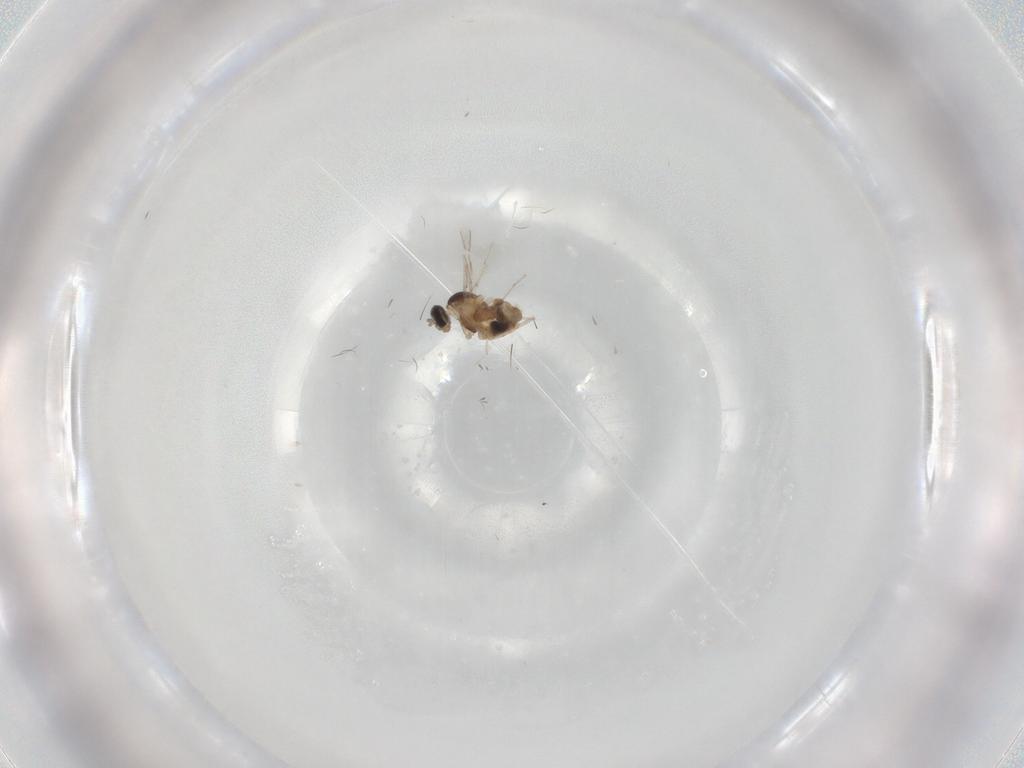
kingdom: Animalia
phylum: Arthropoda
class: Insecta
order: Diptera
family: Cecidomyiidae
